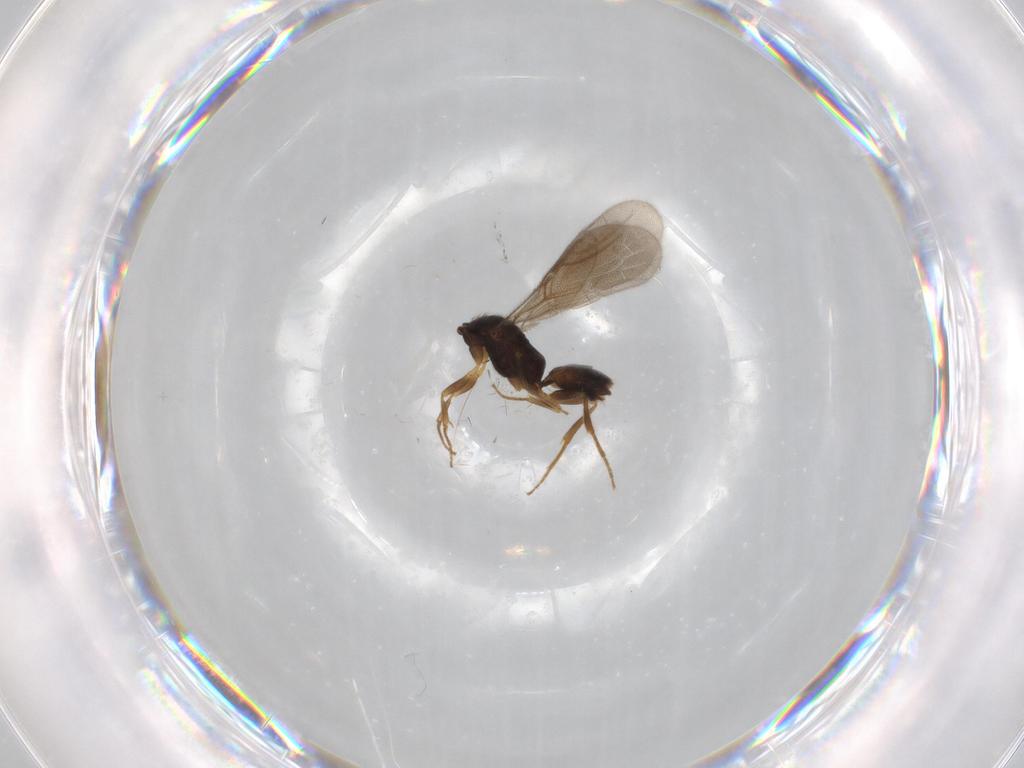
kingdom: Animalia
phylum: Arthropoda
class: Insecta
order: Hymenoptera
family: Bethylidae
